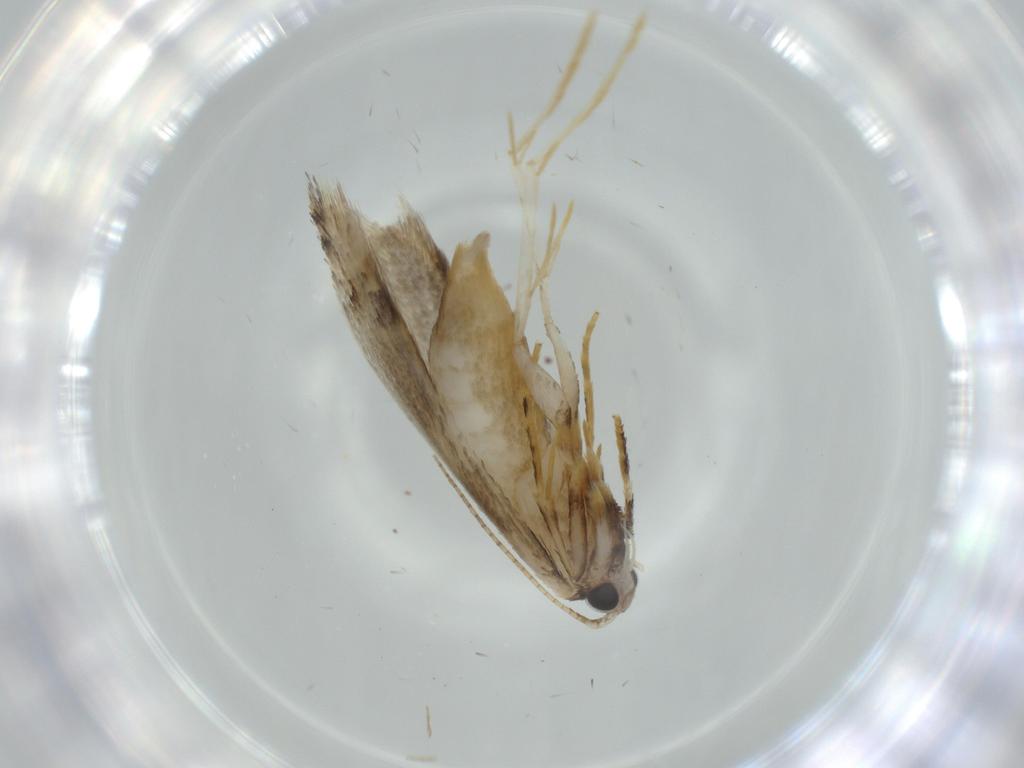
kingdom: Animalia
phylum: Arthropoda
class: Insecta
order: Lepidoptera
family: Tineidae
